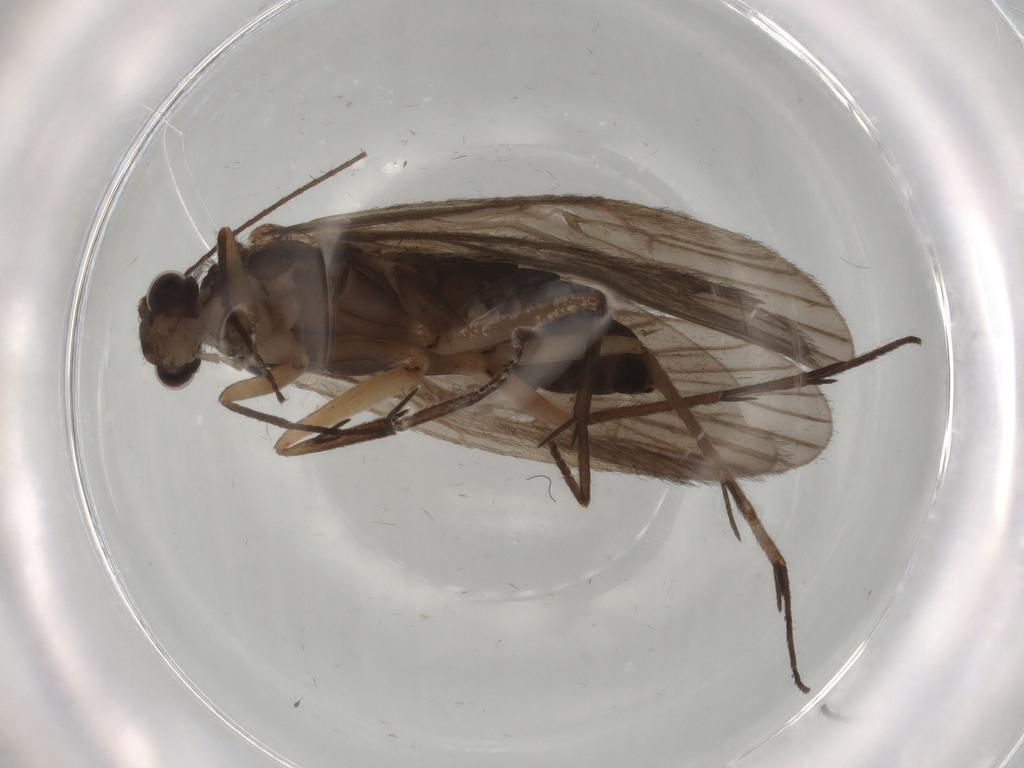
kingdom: Animalia
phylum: Arthropoda
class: Insecta
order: Trichoptera
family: Philopotamidae
